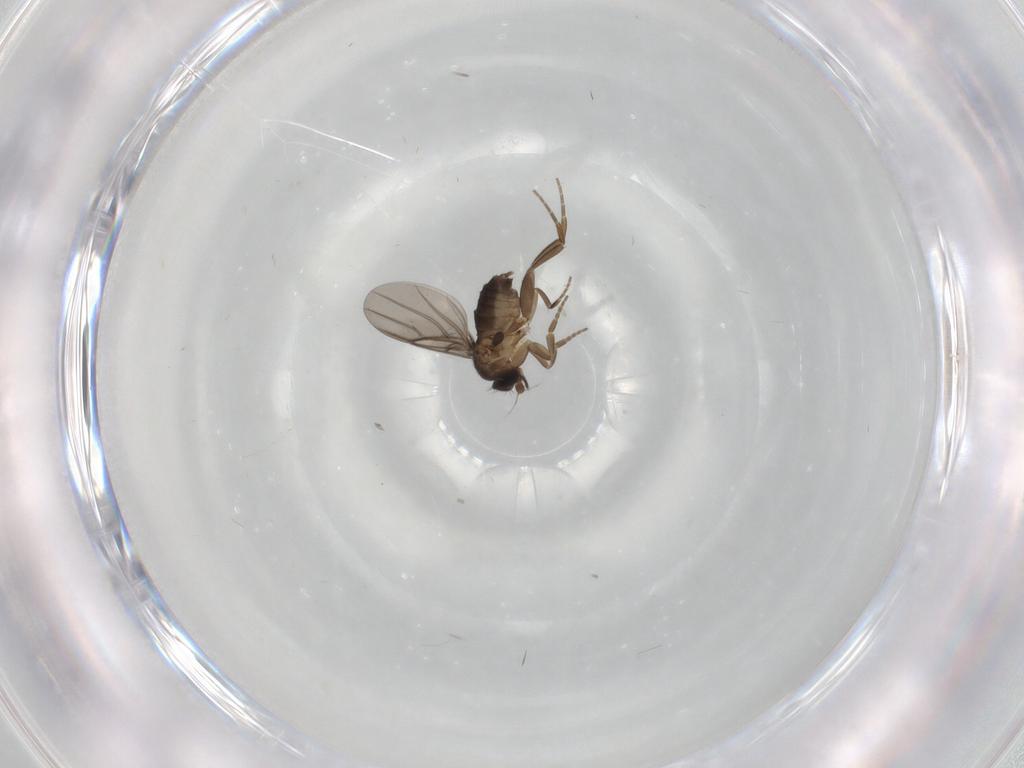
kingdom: Animalia
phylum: Arthropoda
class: Insecta
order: Diptera
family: Phoridae
